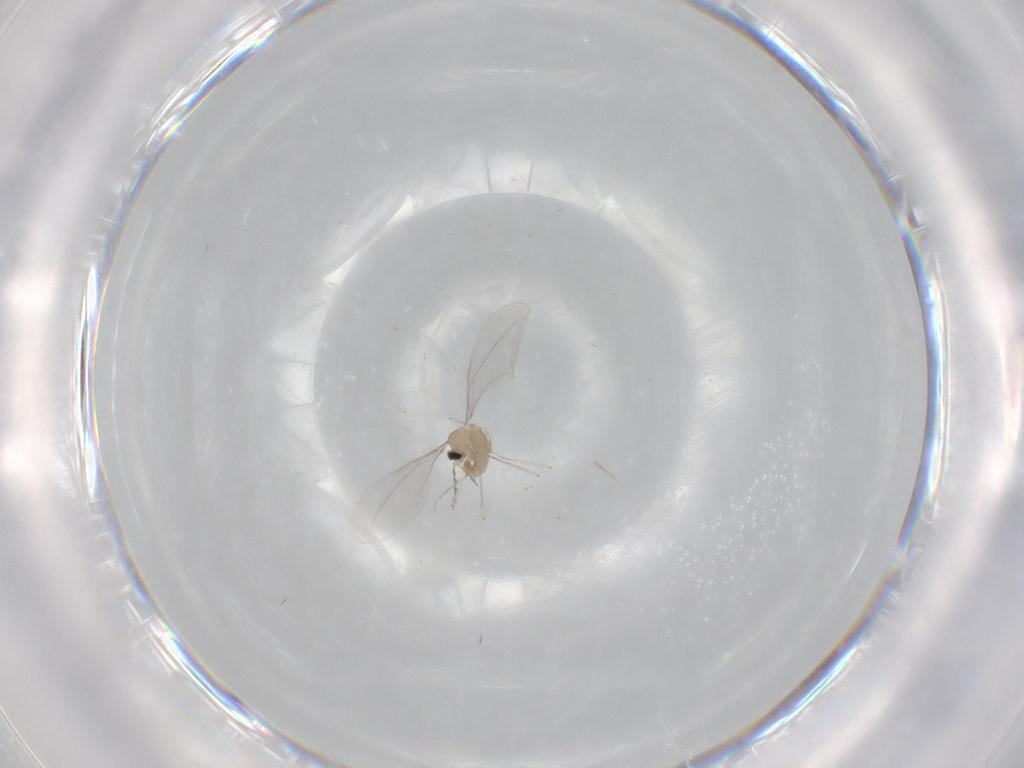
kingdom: Animalia
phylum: Arthropoda
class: Insecta
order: Diptera
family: Cecidomyiidae
